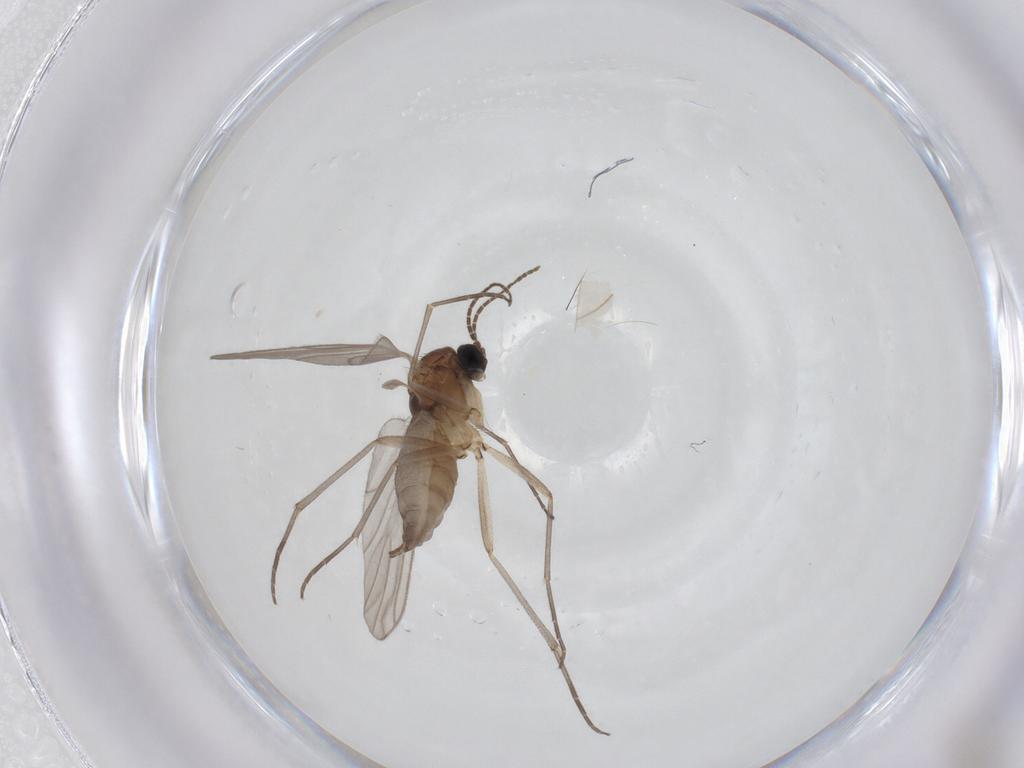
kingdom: Animalia
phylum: Arthropoda
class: Insecta
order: Diptera
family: Sciaridae
